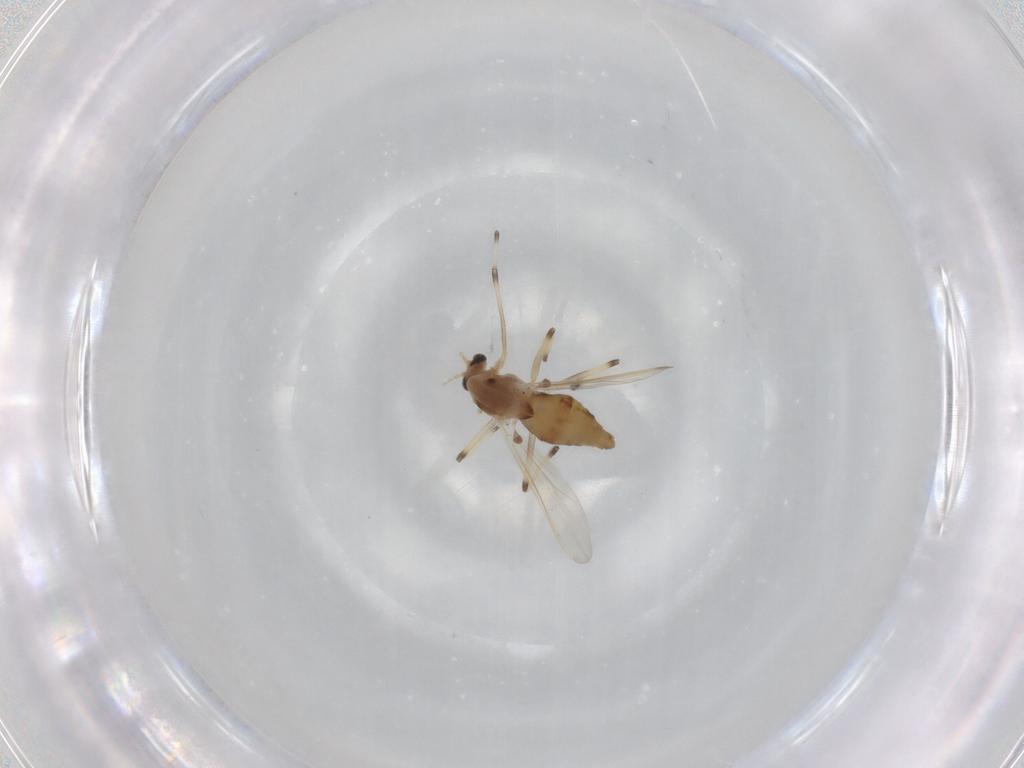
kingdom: Animalia
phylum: Arthropoda
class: Insecta
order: Diptera
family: Chironomidae
